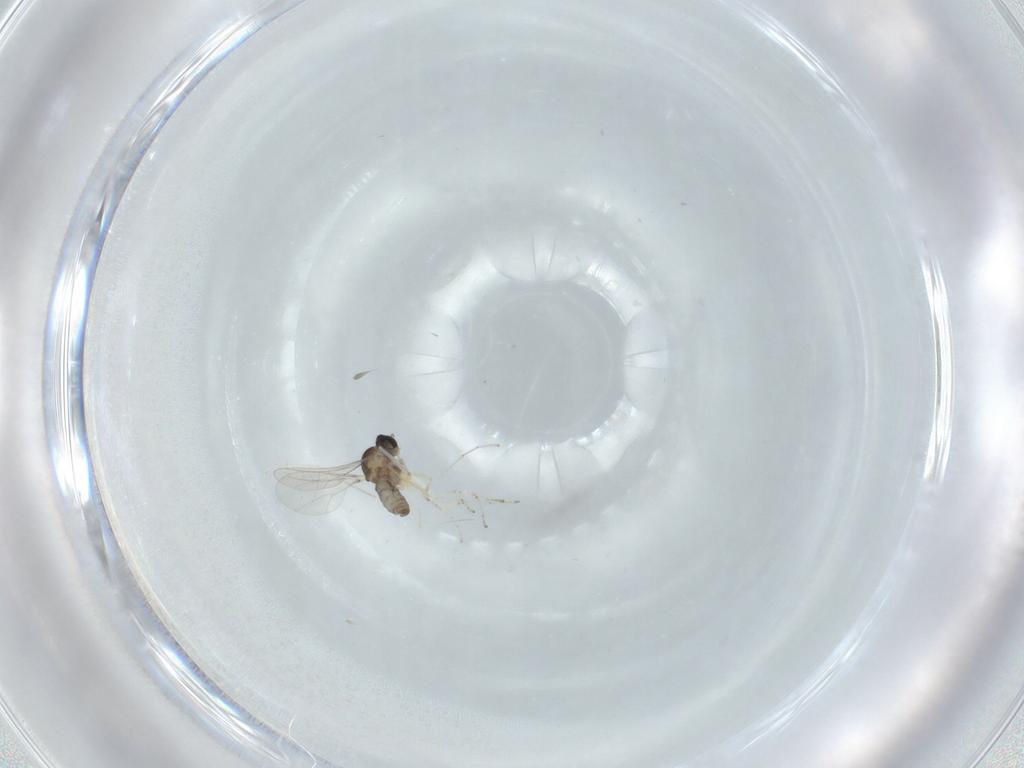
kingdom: Animalia
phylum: Arthropoda
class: Insecta
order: Diptera
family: Cecidomyiidae
